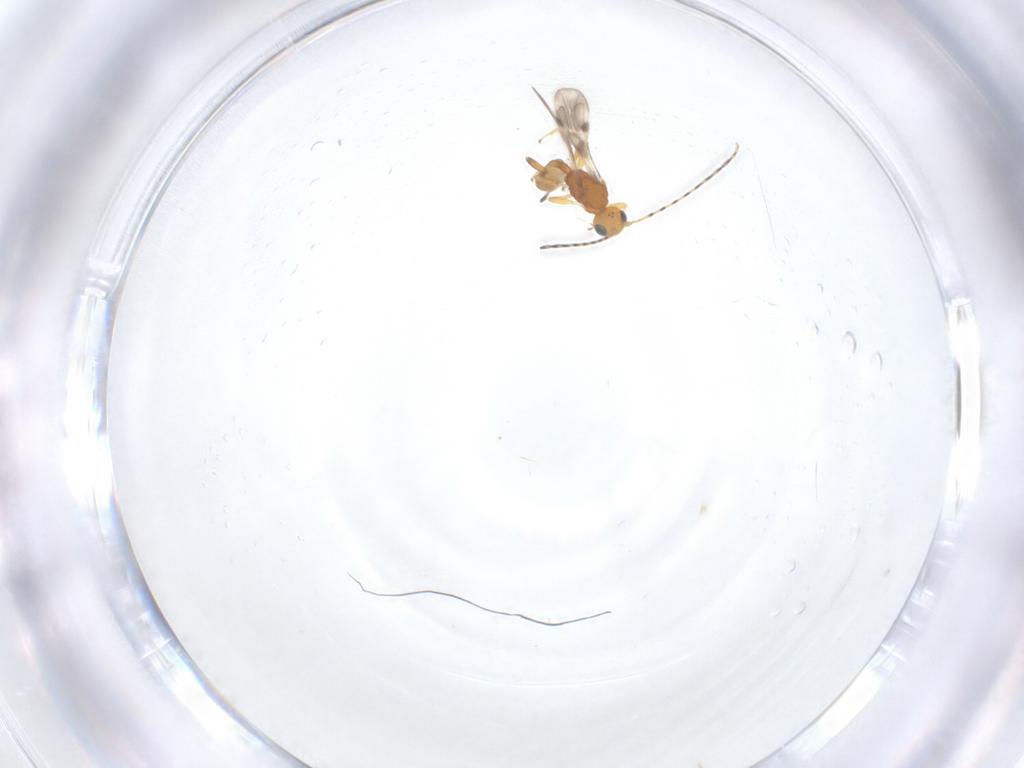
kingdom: Animalia
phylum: Arthropoda
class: Insecta
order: Hymenoptera
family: Braconidae
